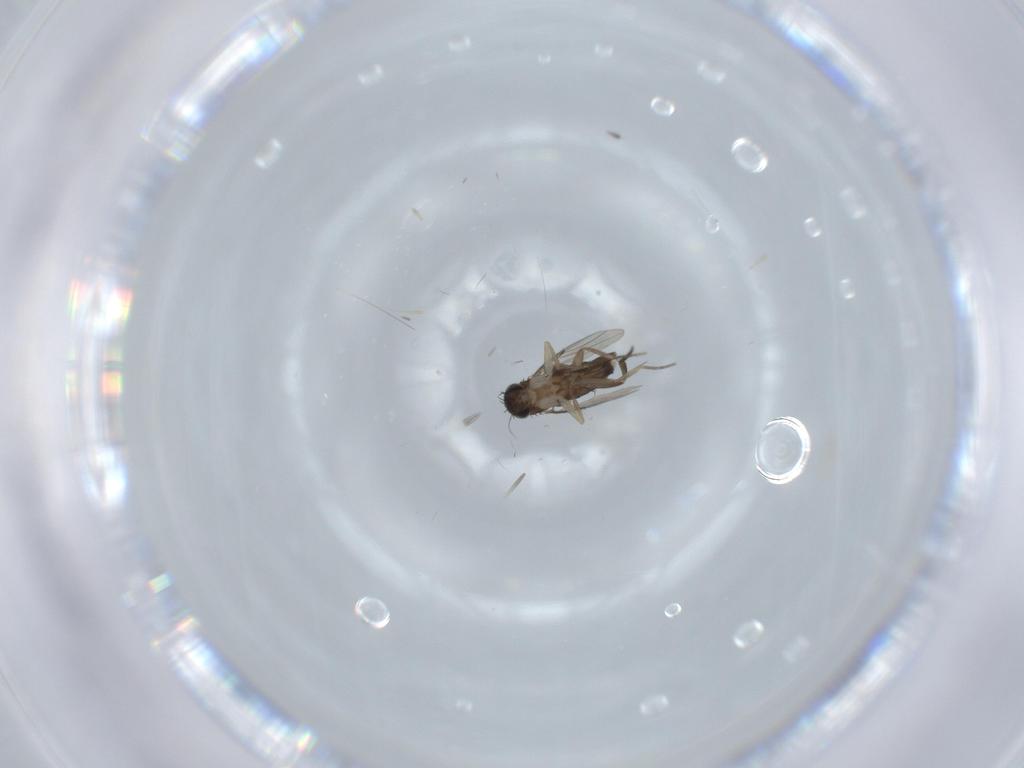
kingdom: Animalia
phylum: Arthropoda
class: Insecta
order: Diptera
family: Phoridae
